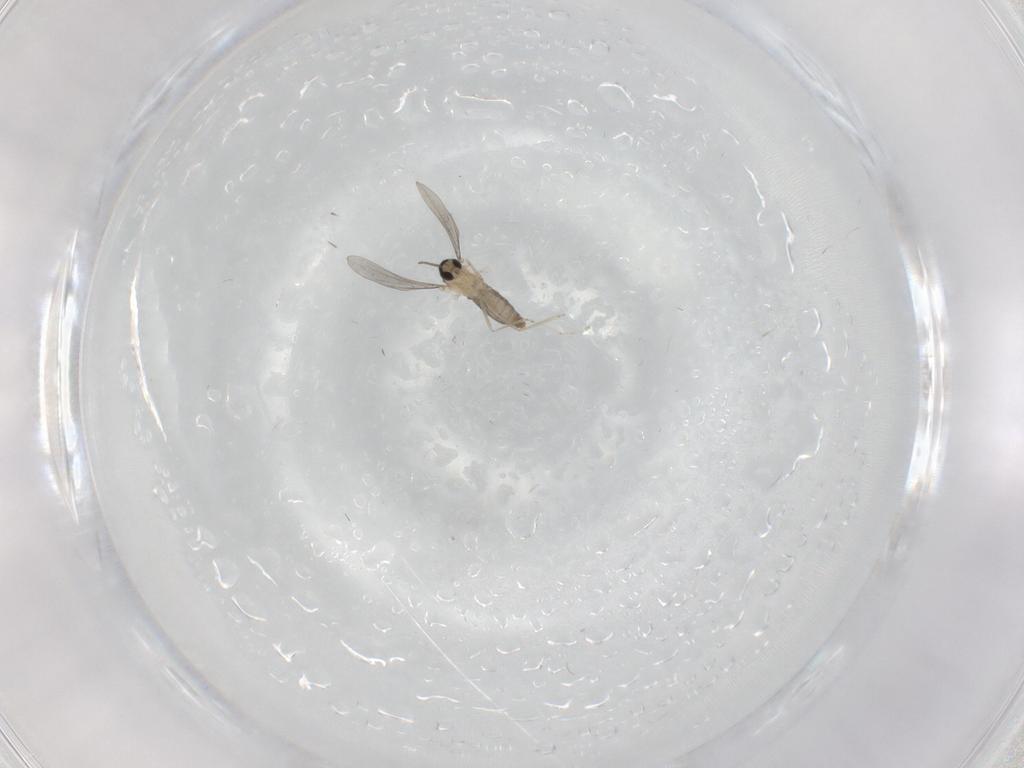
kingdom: Animalia
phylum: Arthropoda
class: Insecta
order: Diptera
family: Cecidomyiidae
